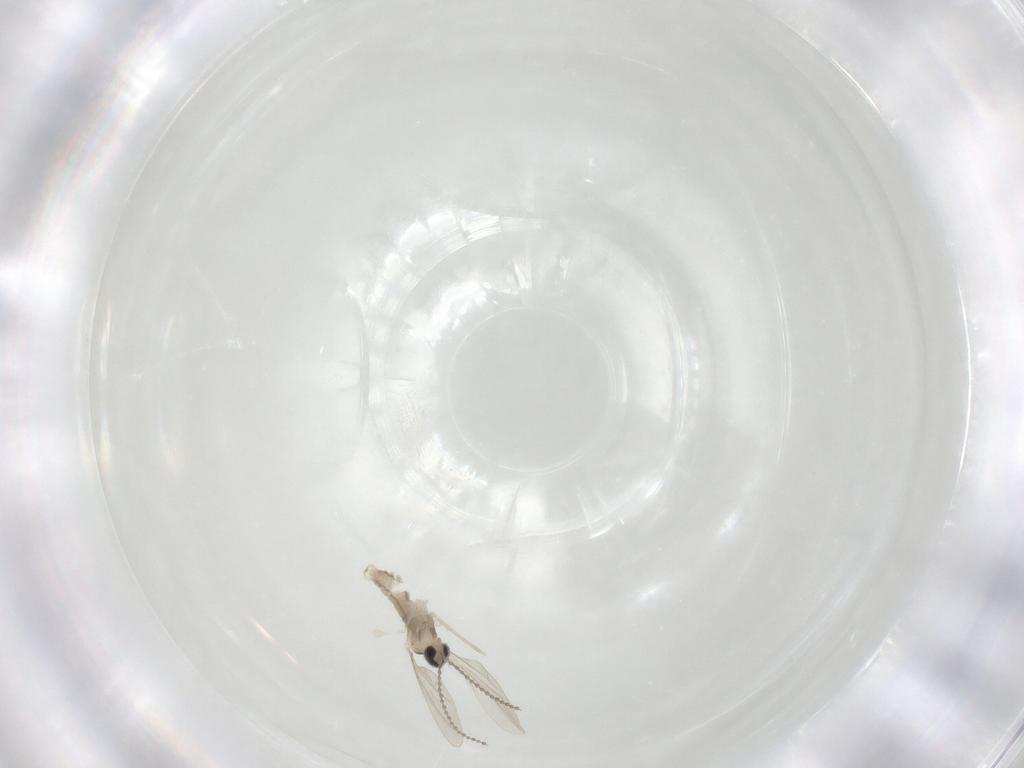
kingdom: Animalia
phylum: Arthropoda
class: Insecta
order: Diptera
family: Cecidomyiidae
